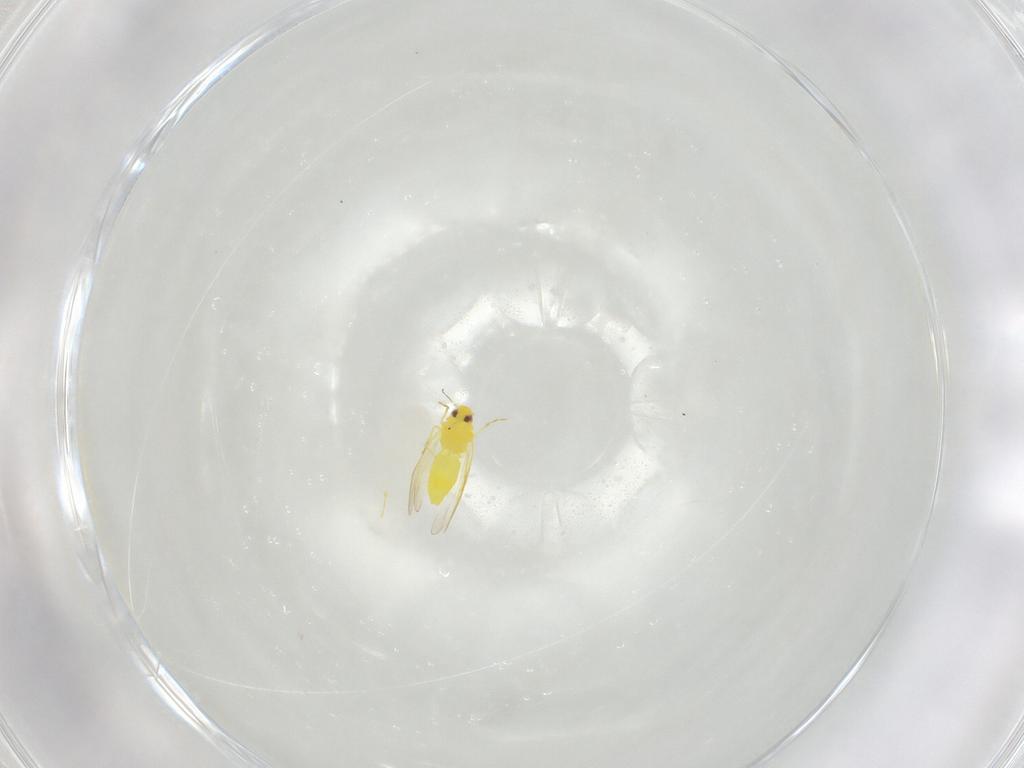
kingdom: Animalia
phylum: Arthropoda
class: Insecta
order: Hemiptera
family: Aleyrodidae
